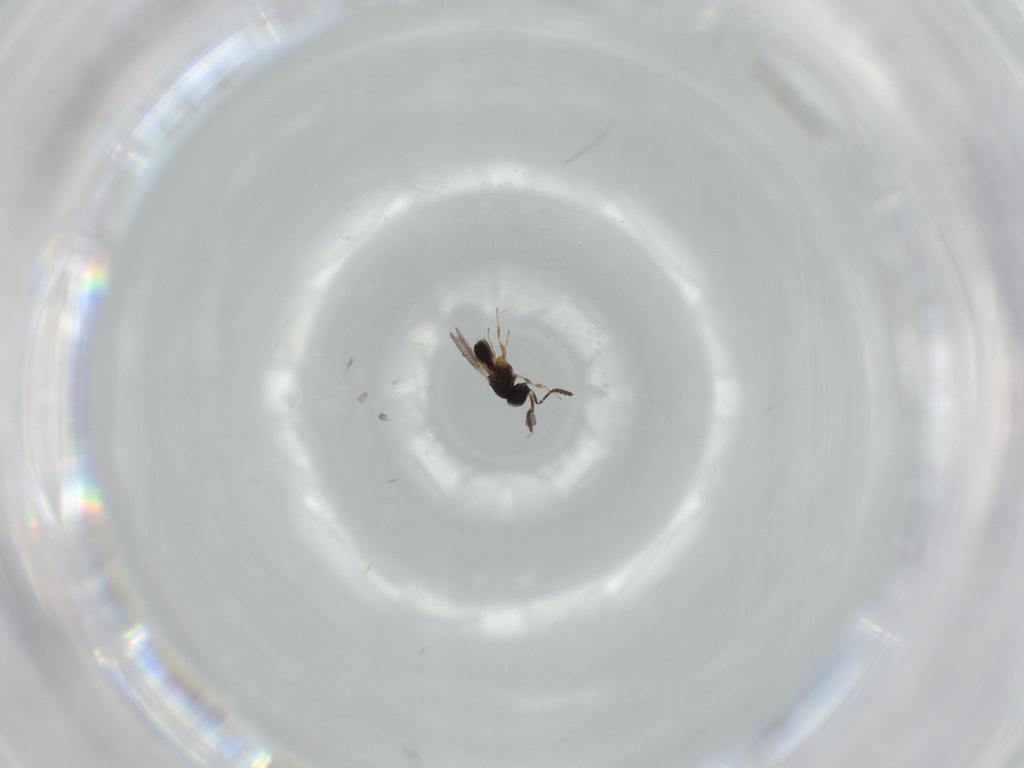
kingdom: Animalia
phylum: Arthropoda
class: Insecta
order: Hymenoptera
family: Scelionidae
